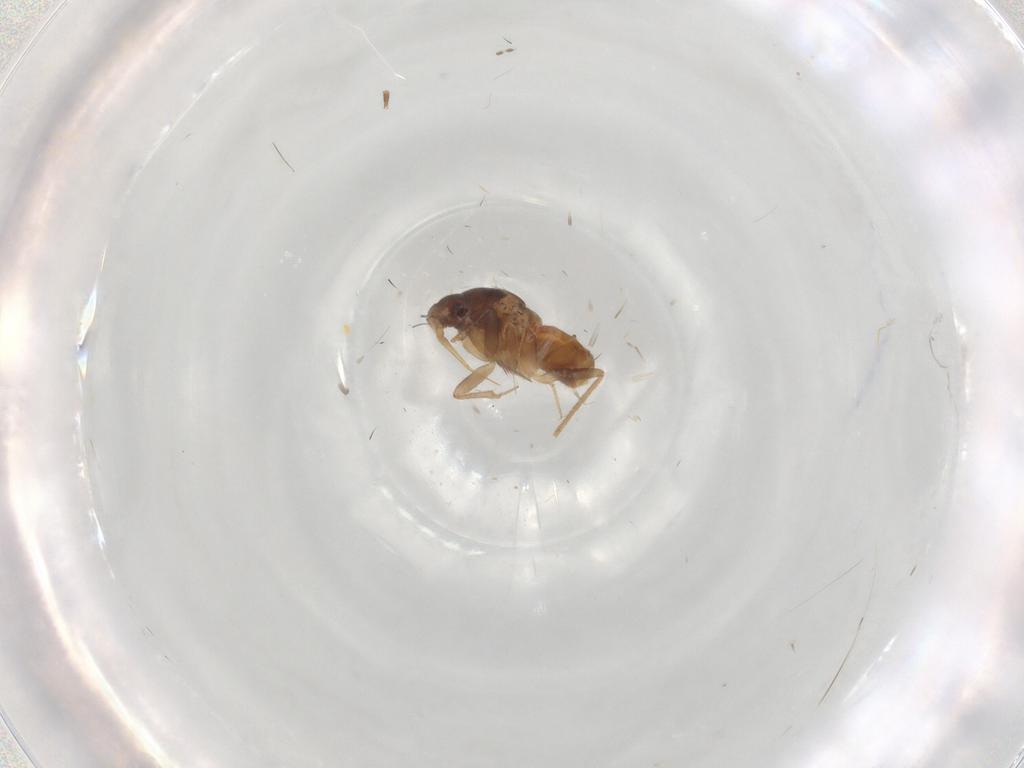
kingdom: Animalia
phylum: Arthropoda
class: Insecta
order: Hemiptera
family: Ceratocombidae
